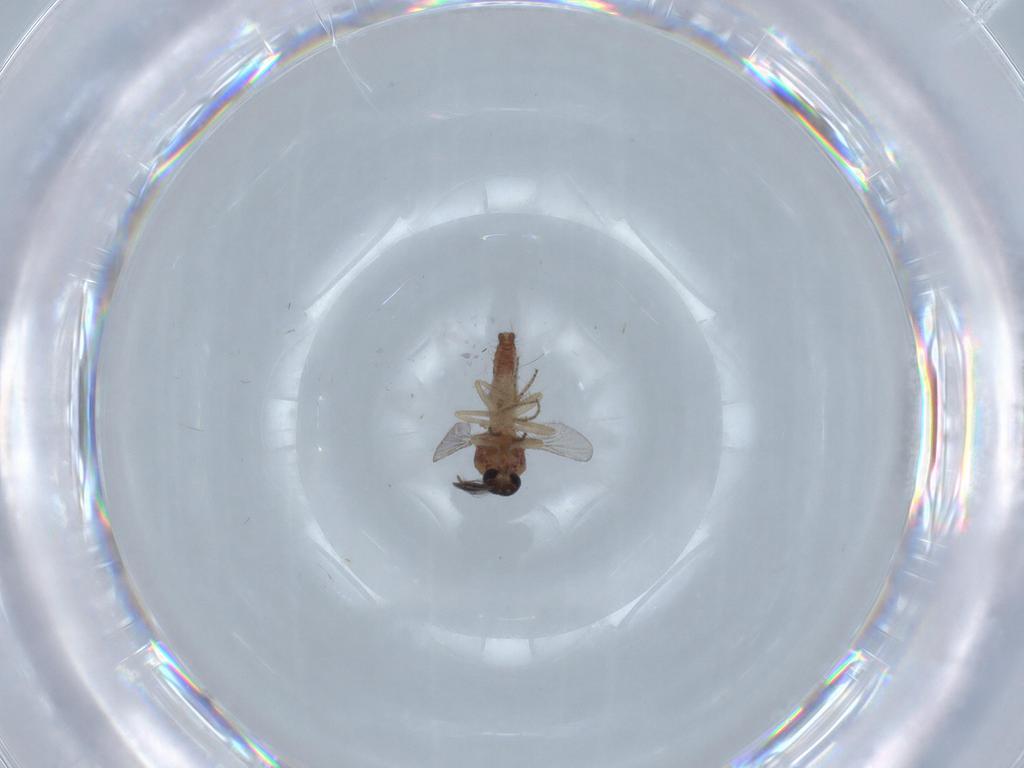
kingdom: Animalia
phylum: Arthropoda
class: Insecta
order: Diptera
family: Ceratopogonidae
